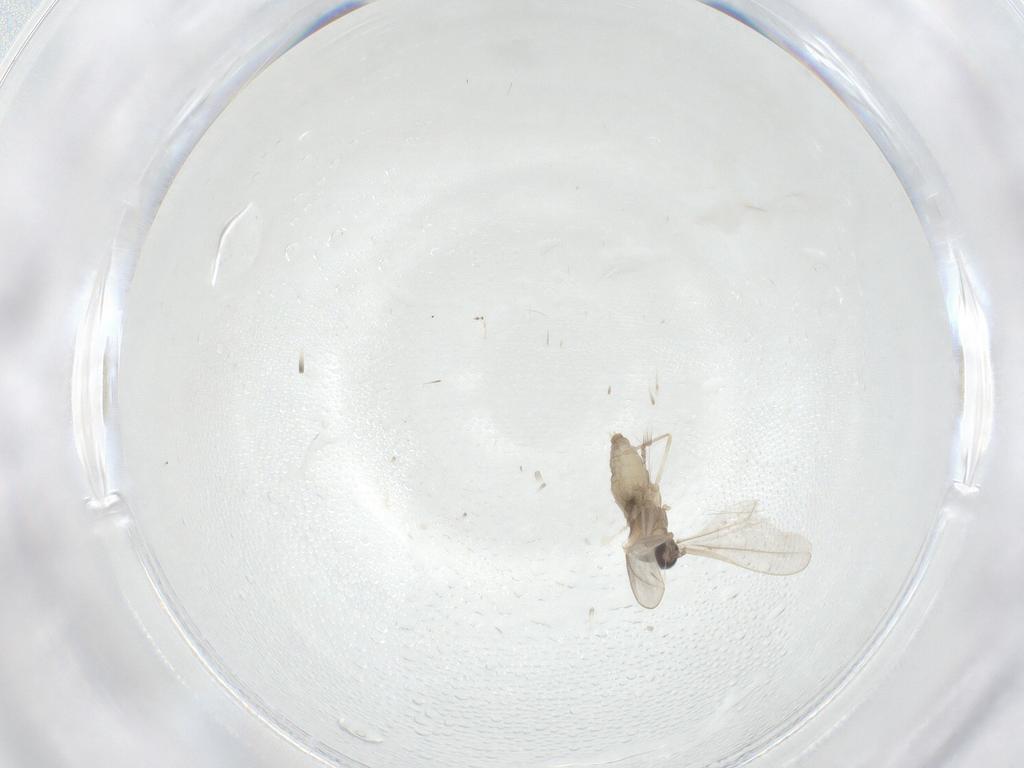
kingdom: Animalia
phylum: Arthropoda
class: Insecta
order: Diptera
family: Cecidomyiidae
